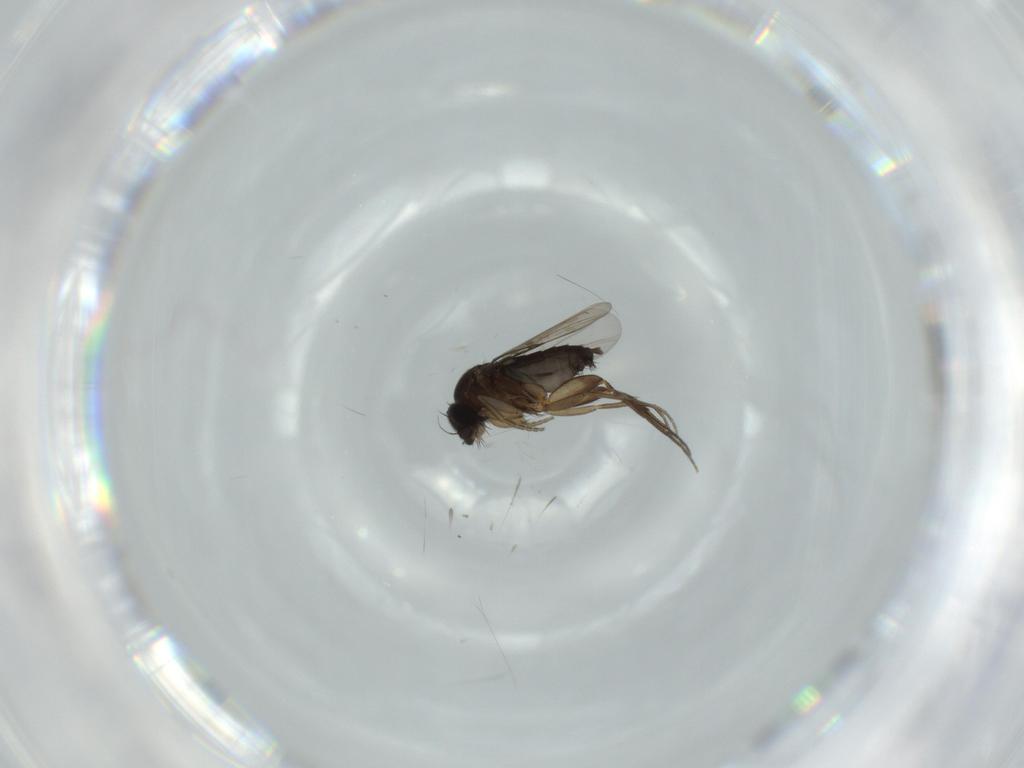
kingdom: Animalia
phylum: Arthropoda
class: Insecta
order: Diptera
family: Phoridae
